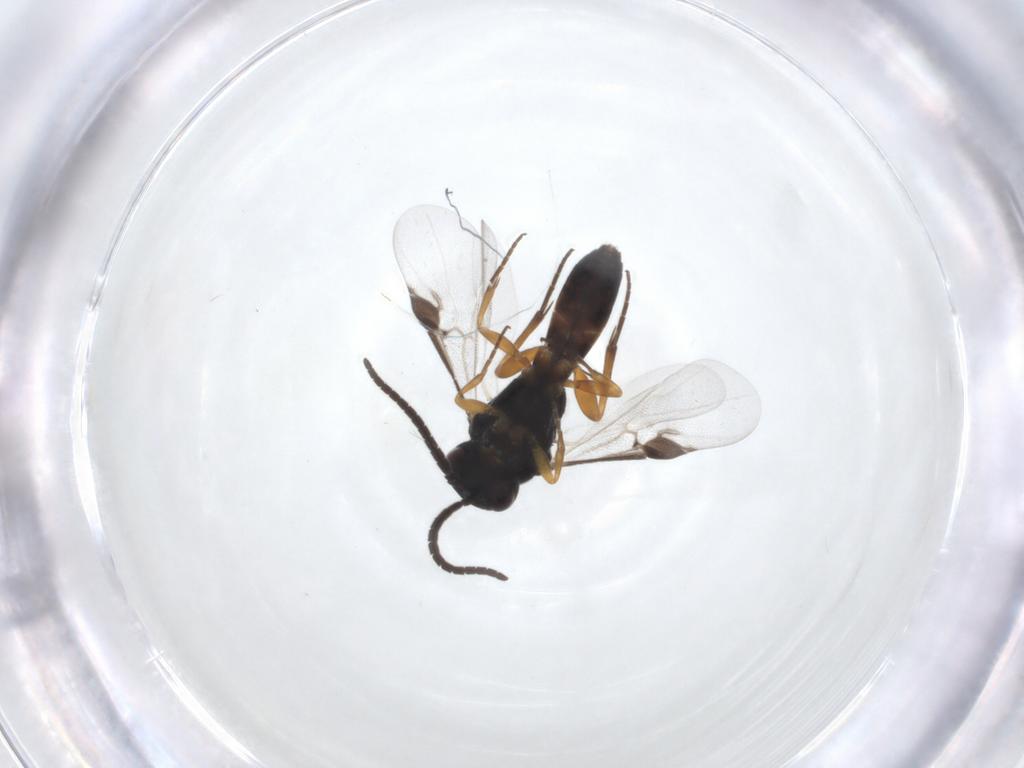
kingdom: Animalia
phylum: Arthropoda
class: Insecta
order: Hymenoptera
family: Braconidae
